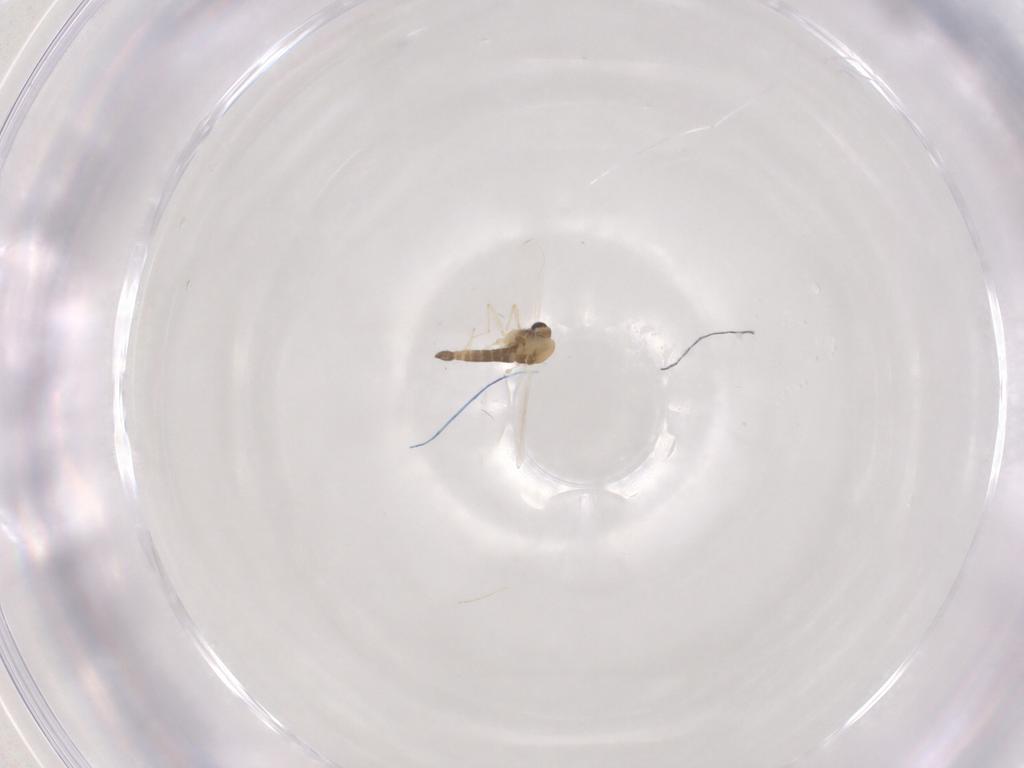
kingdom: Animalia
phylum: Arthropoda
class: Insecta
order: Diptera
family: Chironomidae
